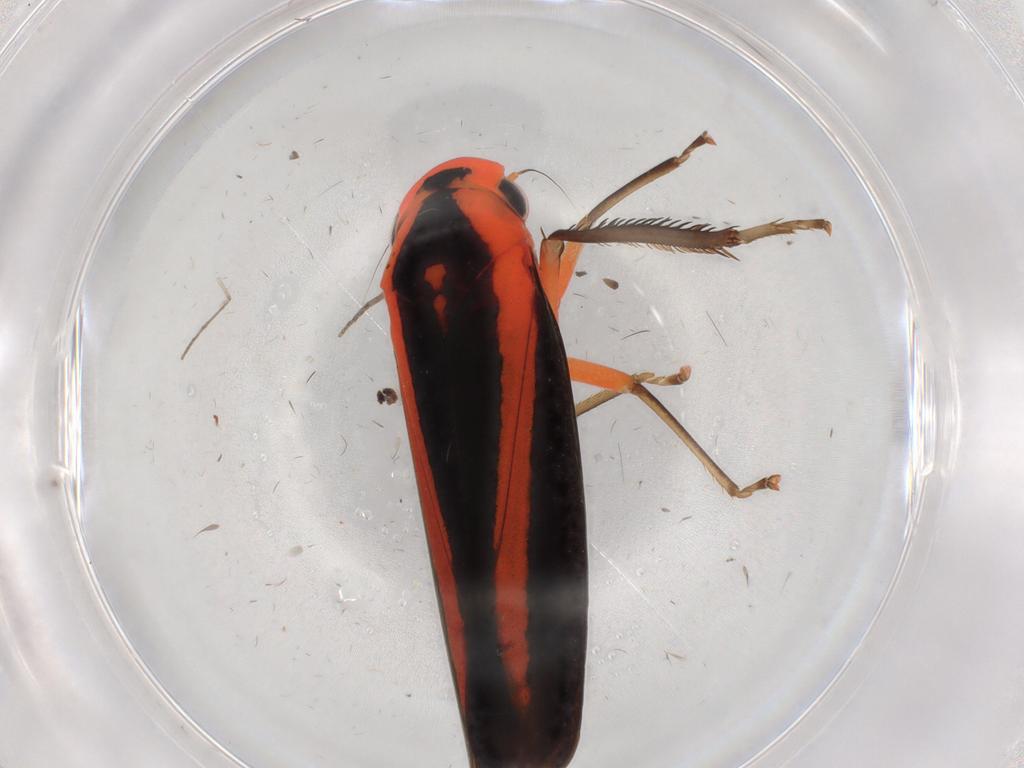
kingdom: Animalia
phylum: Arthropoda
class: Insecta
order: Hemiptera
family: Cicadellidae
